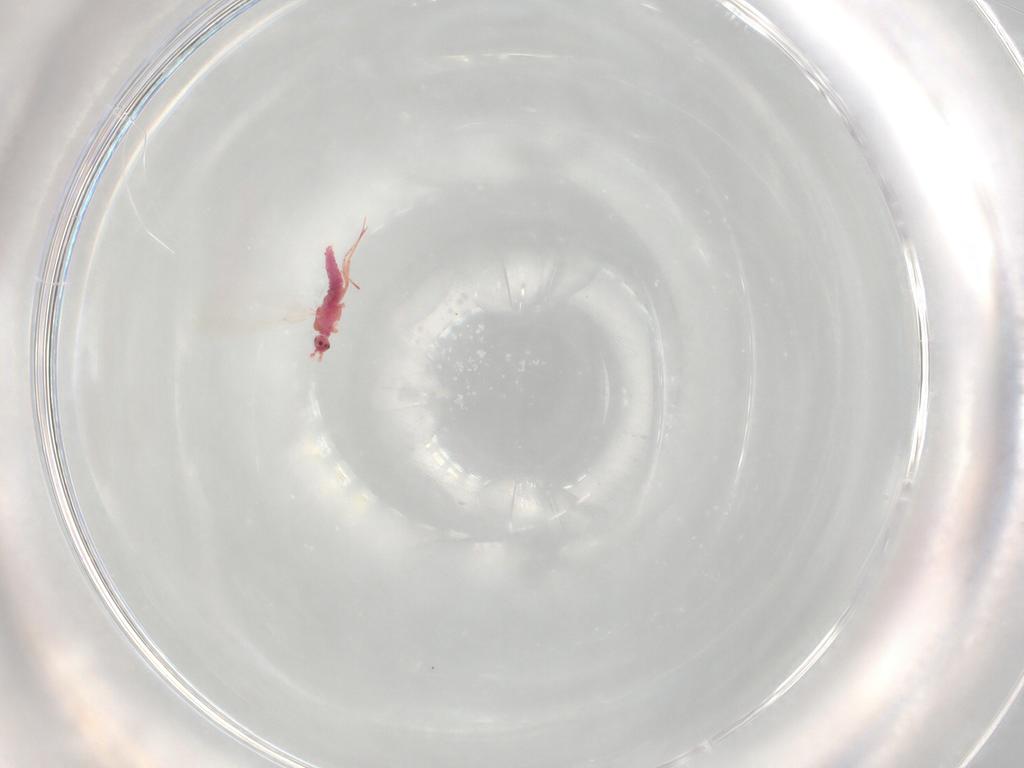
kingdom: Animalia
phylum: Arthropoda
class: Insecta
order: Hemiptera
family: Pseudococcidae
